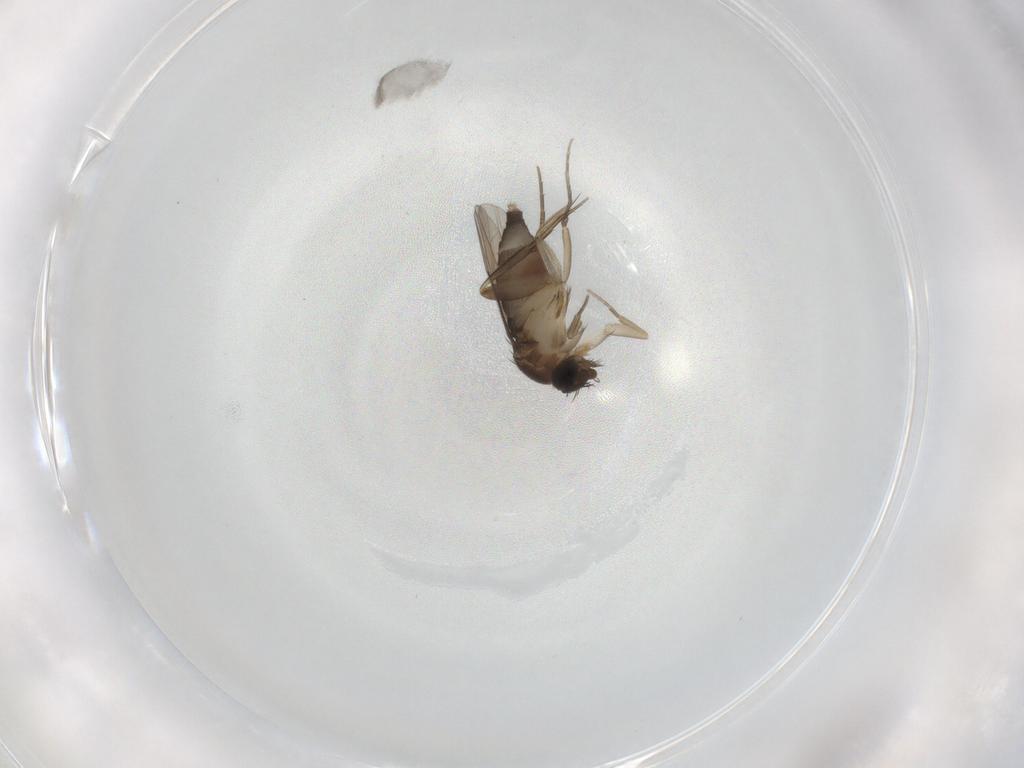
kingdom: Animalia
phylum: Arthropoda
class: Insecta
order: Diptera
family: Phoridae
